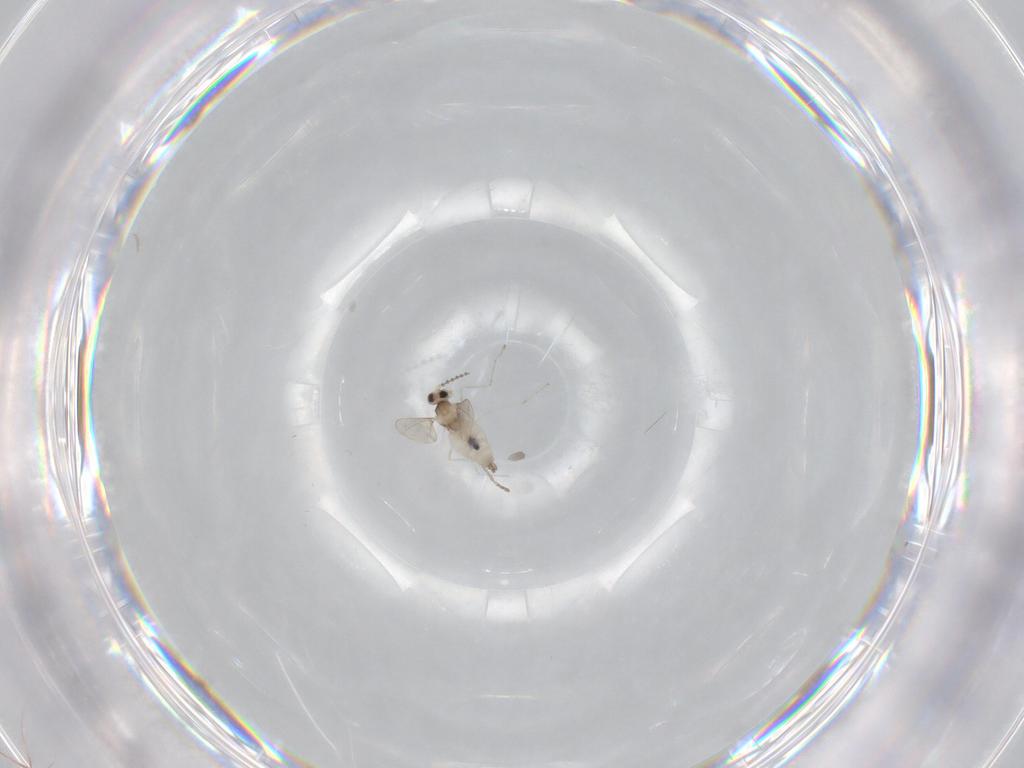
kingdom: Animalia
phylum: Arthropoda
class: Insecta
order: Diptera
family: Cecidomyiidae
